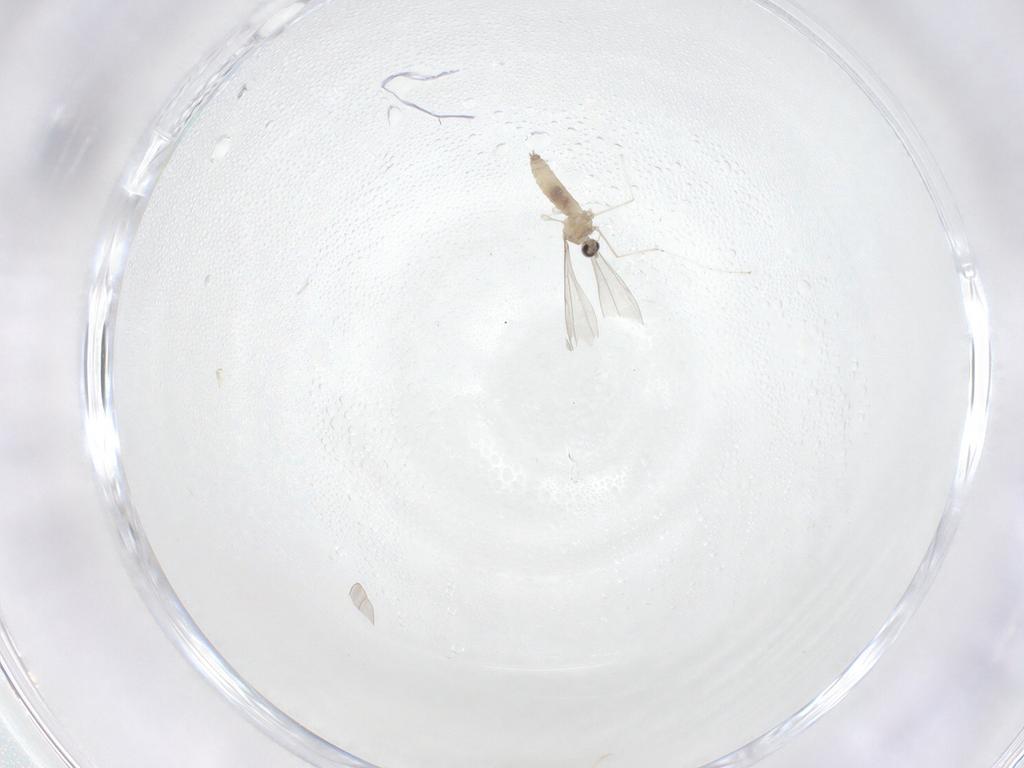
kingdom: Animalia
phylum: Arthropoda
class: Insecta
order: Diptera
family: Cecidomyiidae
